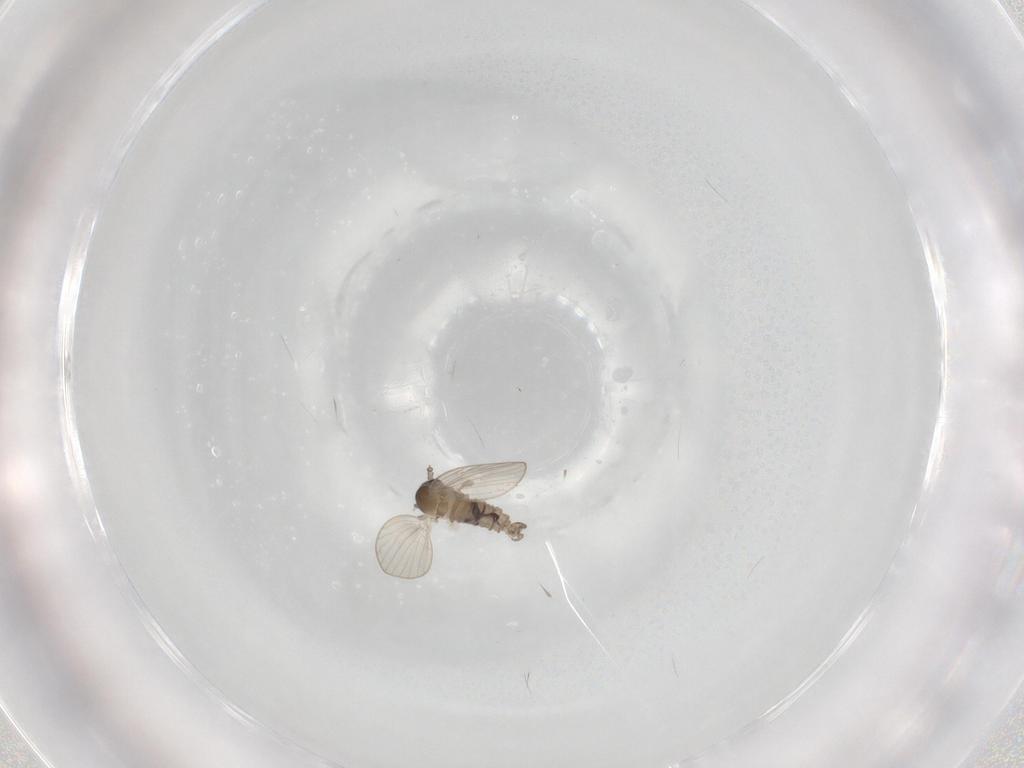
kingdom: Animalia
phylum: Arthropoda
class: Insecta
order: Diptera
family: Psychodidae
